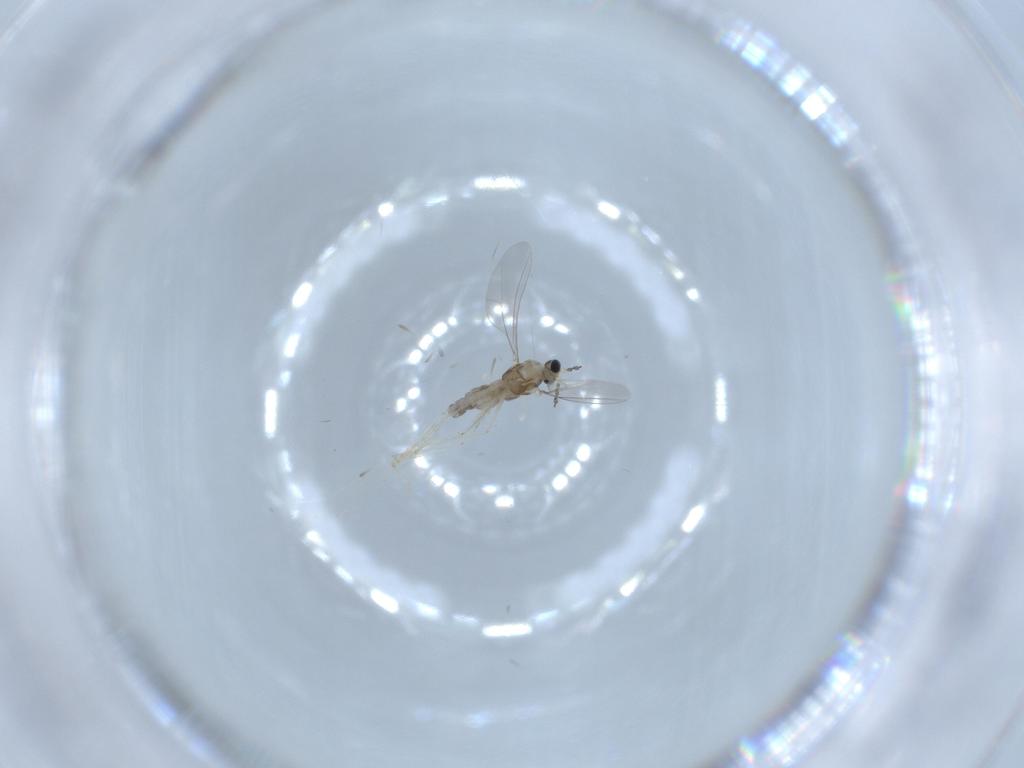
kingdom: Animalia
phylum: Arthropoda
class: Insecta
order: Diptera
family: Cecidomyiidae
